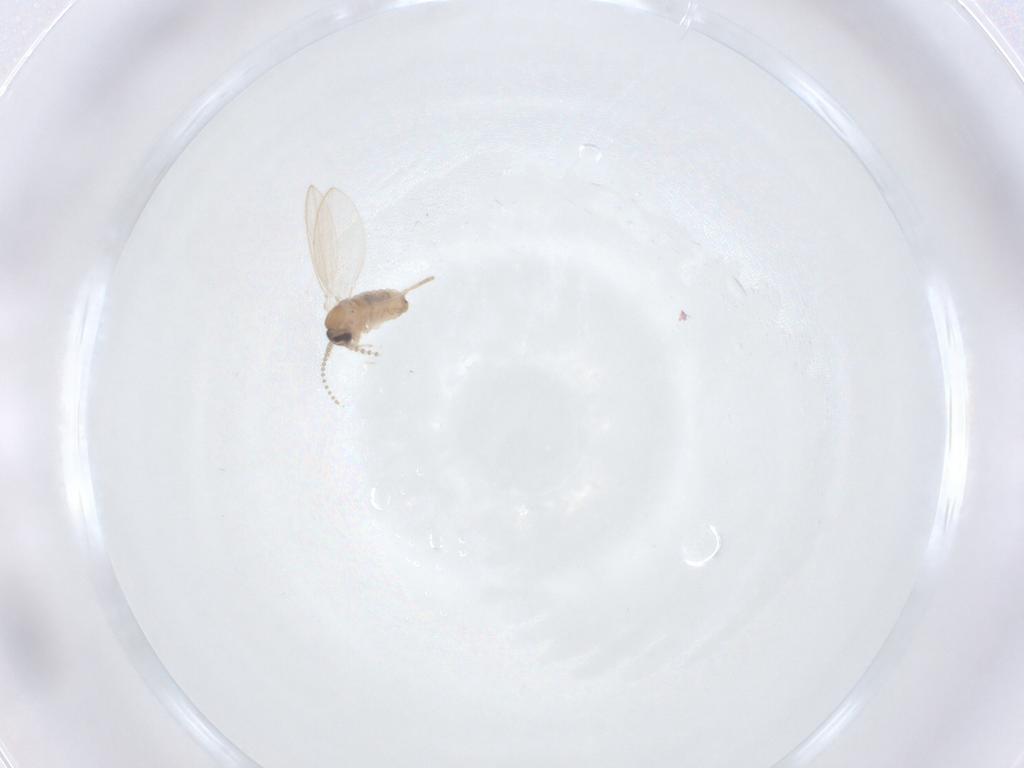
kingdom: Animalia
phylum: Arthropoda
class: Insecta
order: Diptera
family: Psychodidae
